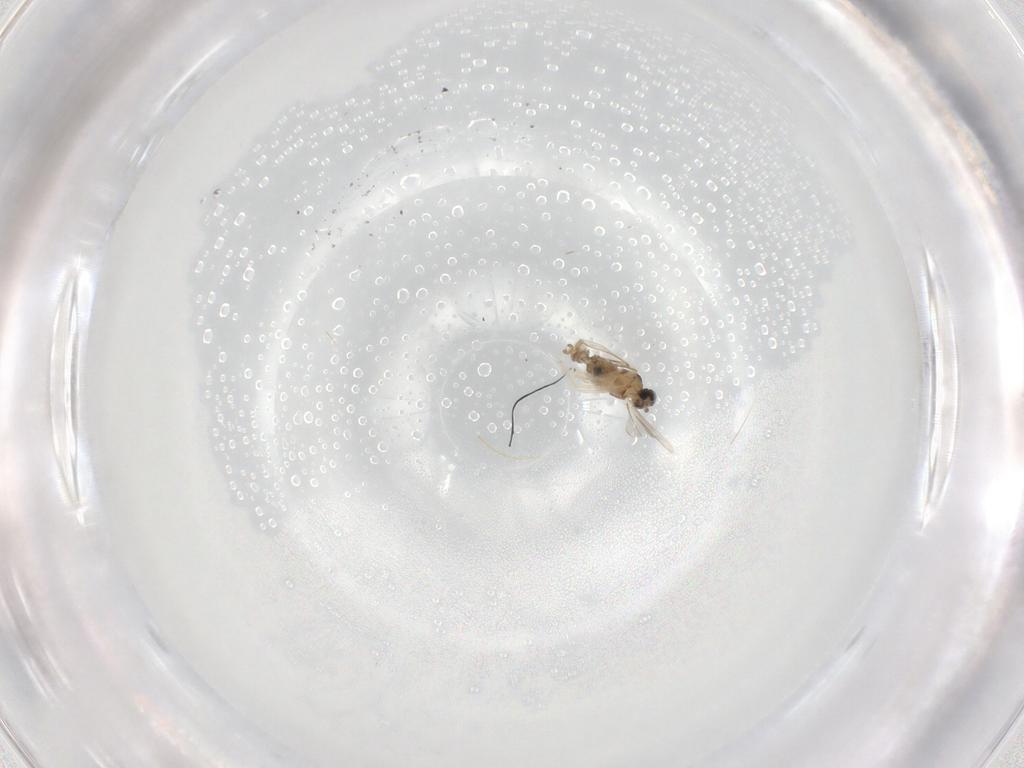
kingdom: Animalia
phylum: Arthropoda
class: Insecta
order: Diptera
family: Cecidomyiidae
